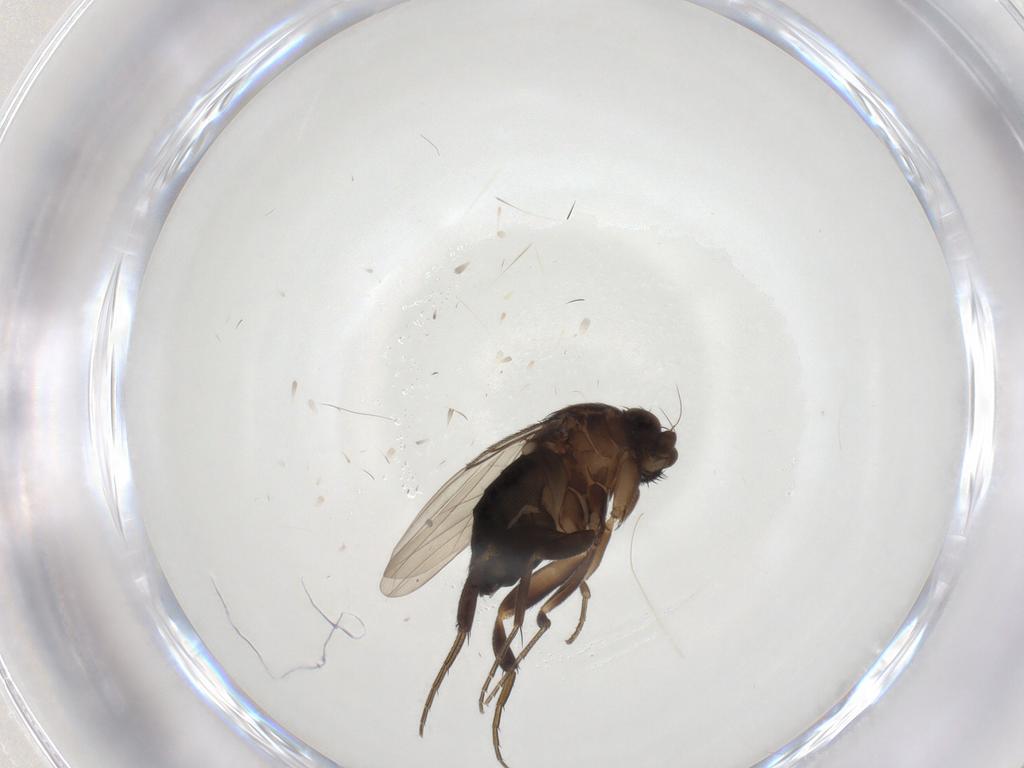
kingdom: Animalia
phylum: Arthropoda
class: Insecta
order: Diptera
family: Phoridae
